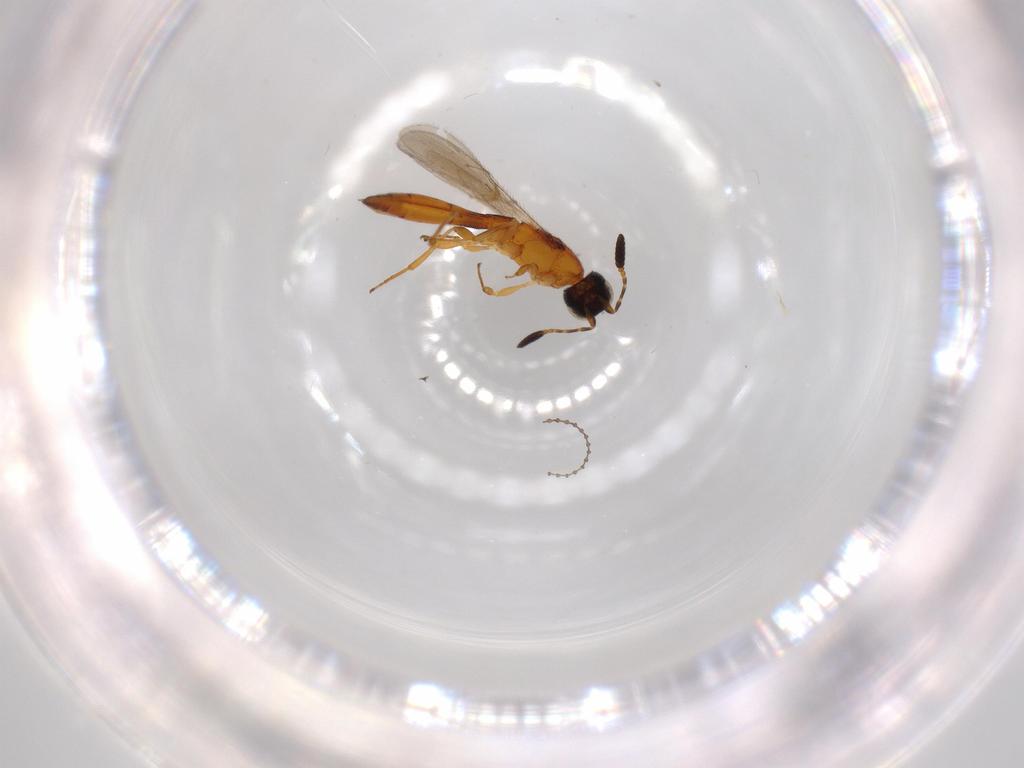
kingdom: Animalia
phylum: Arthropoda
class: Insecta
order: Hymenoptera
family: Scelionidae
